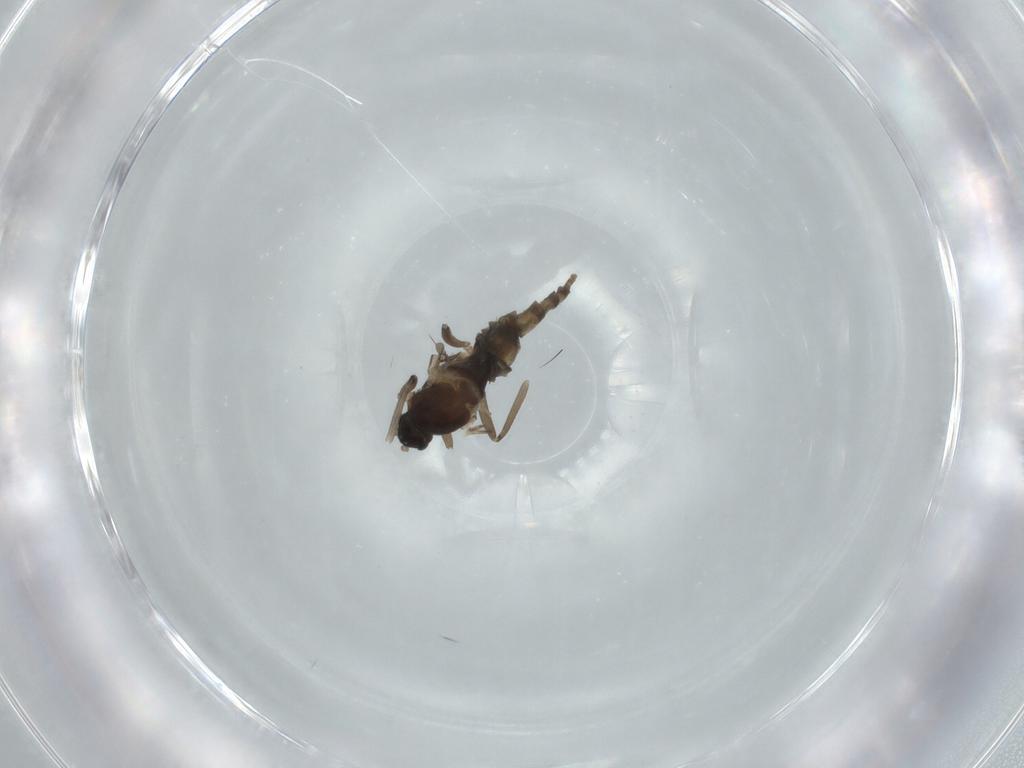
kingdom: Animalia
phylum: Arthropoda
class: Insecta
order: Diptera
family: Cecidomyiidae
